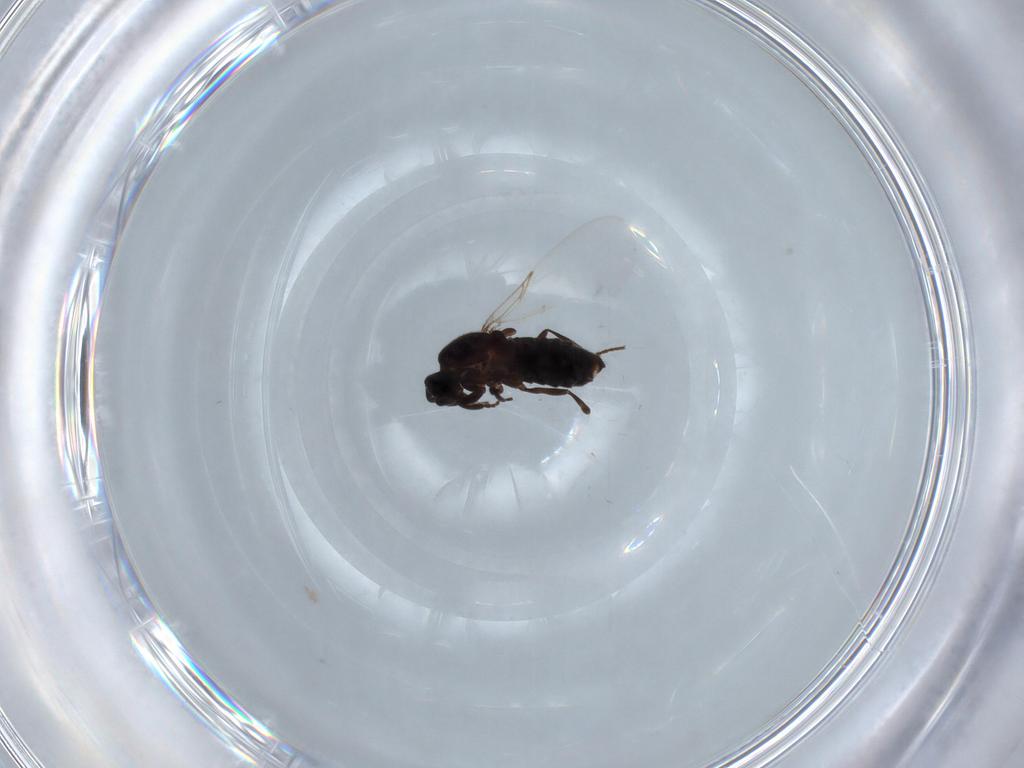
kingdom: Animalia
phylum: Arthropoda
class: Insecta
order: Diptera
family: Scatopsidae
